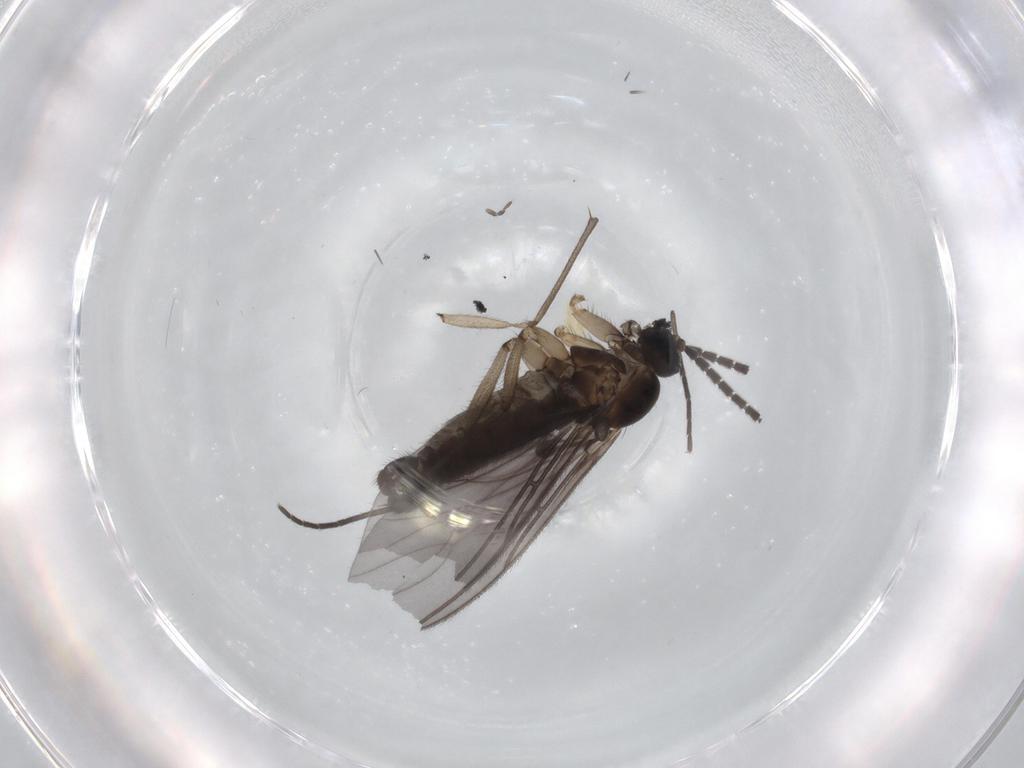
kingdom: Animalia
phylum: Arthropoda
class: Insecta
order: Diptera
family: Sciaridae
